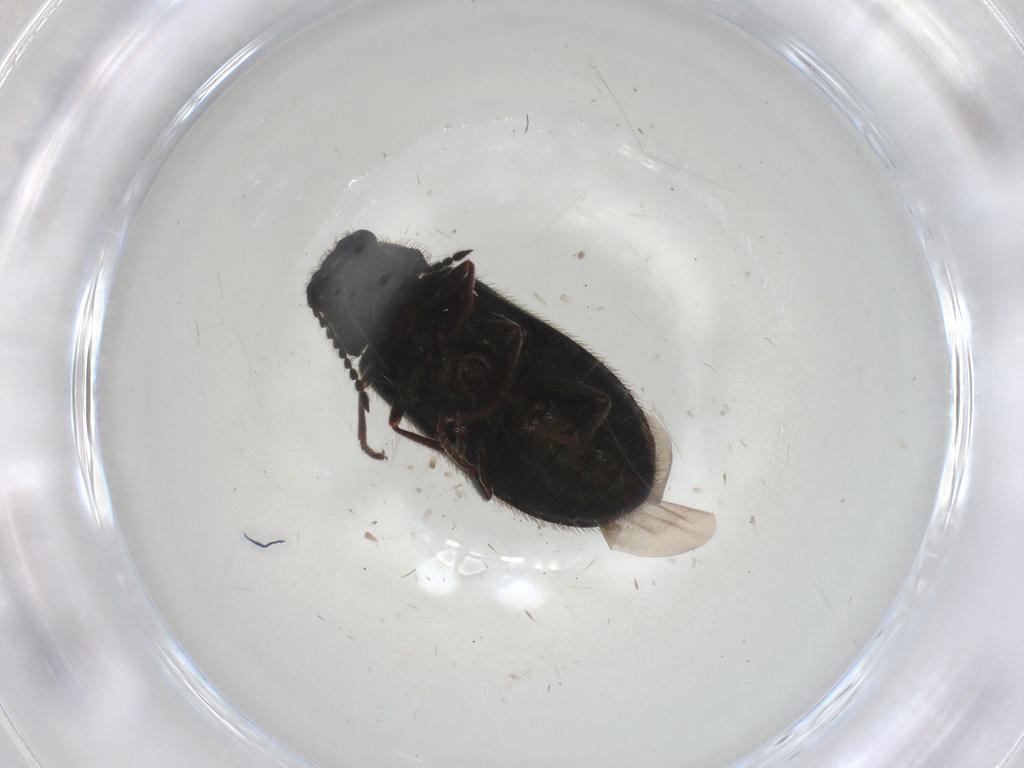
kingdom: Animalia
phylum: Arthropoda
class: Insecta
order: Coleoptera
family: Melyridae
